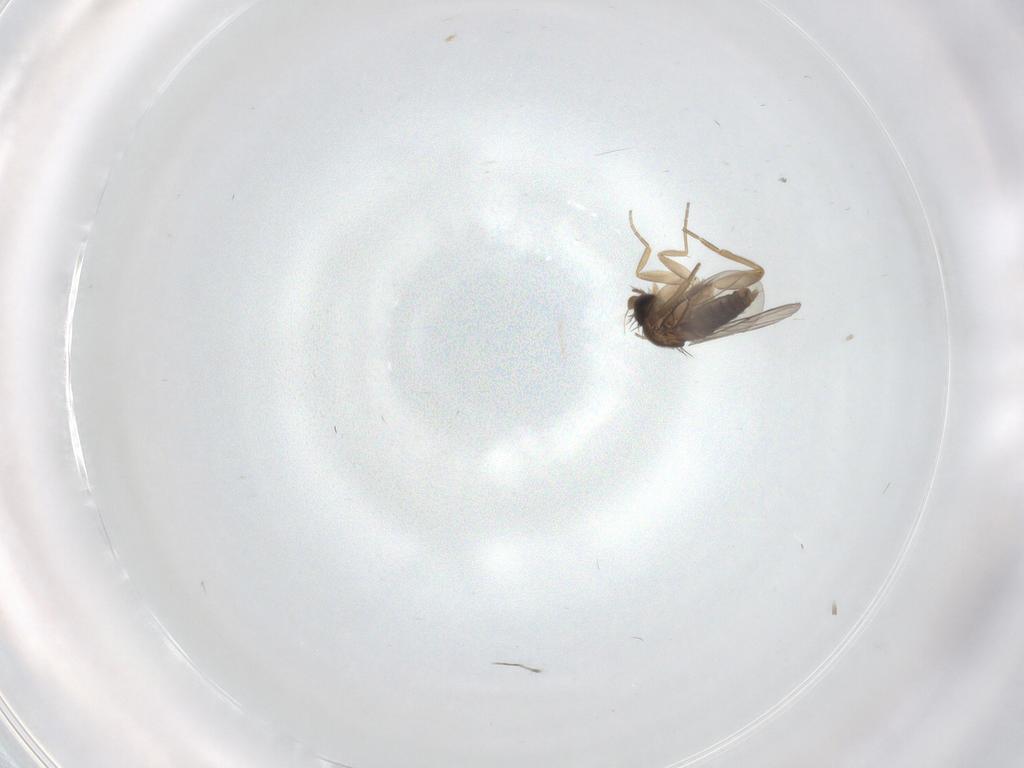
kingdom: Animalia
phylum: Arthropoda
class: Insecta
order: Diptera
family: Phoridae
